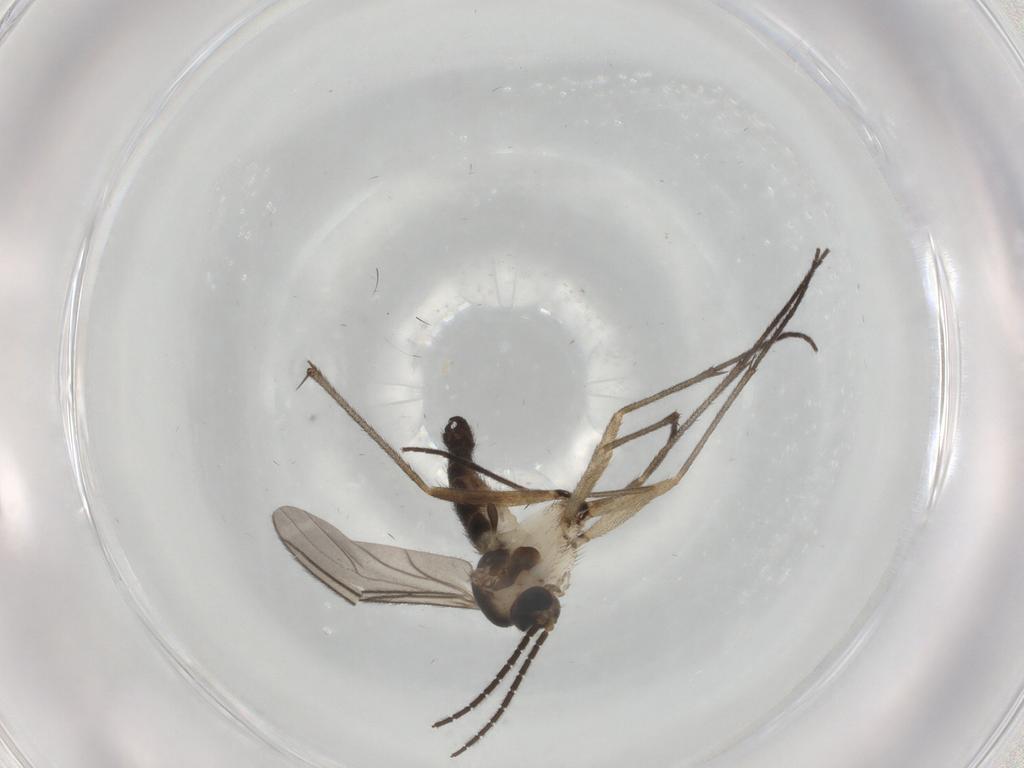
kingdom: Animalia
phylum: Arthropoda
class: Insecta
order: Diptera
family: Sciaridae
